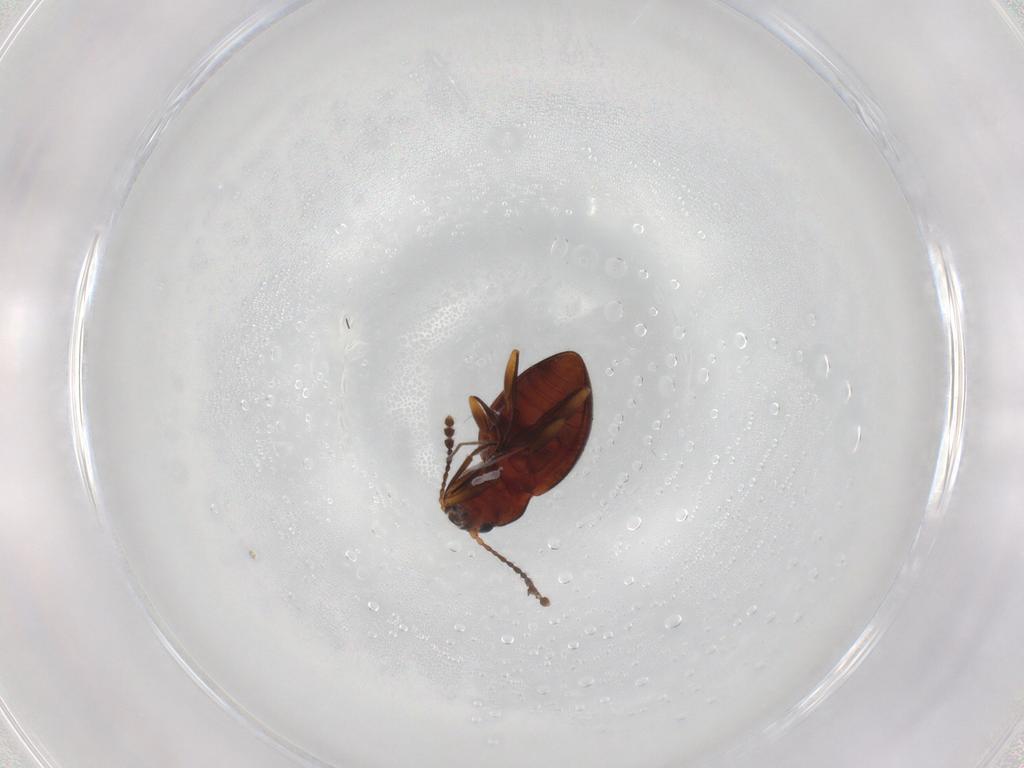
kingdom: Animalia
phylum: Arthropoda
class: Insecta
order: Coleoptera
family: Erotylidae
